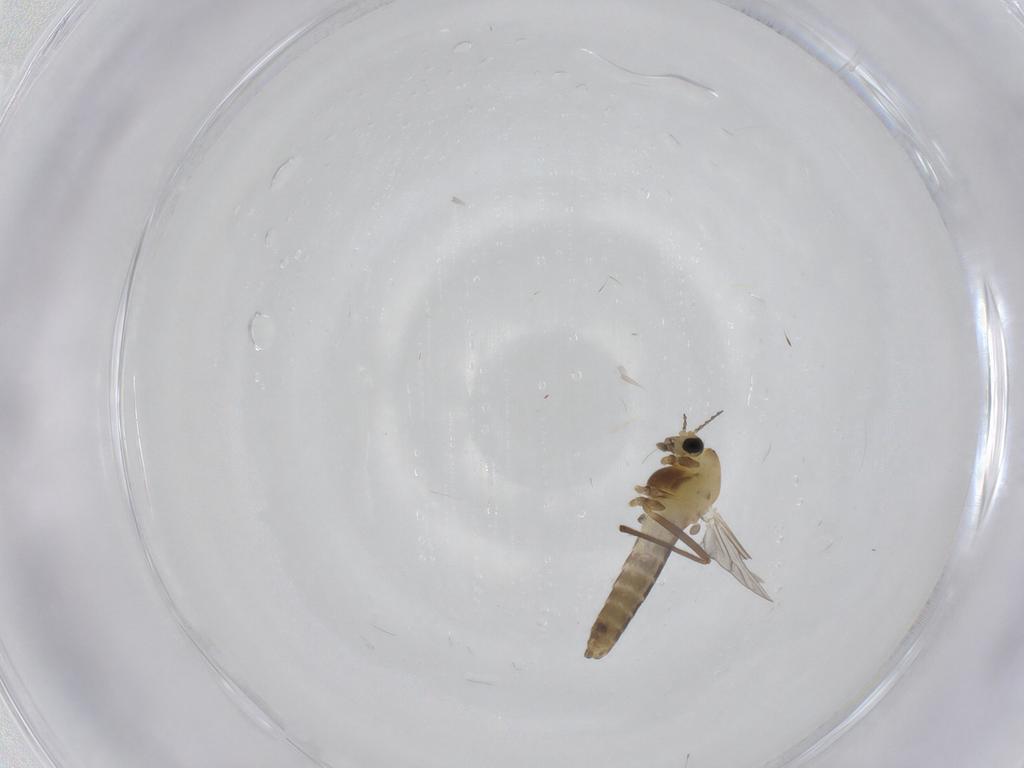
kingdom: Animalia
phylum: Arthropoda
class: Insecta
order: Diptera
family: Chironomidae
